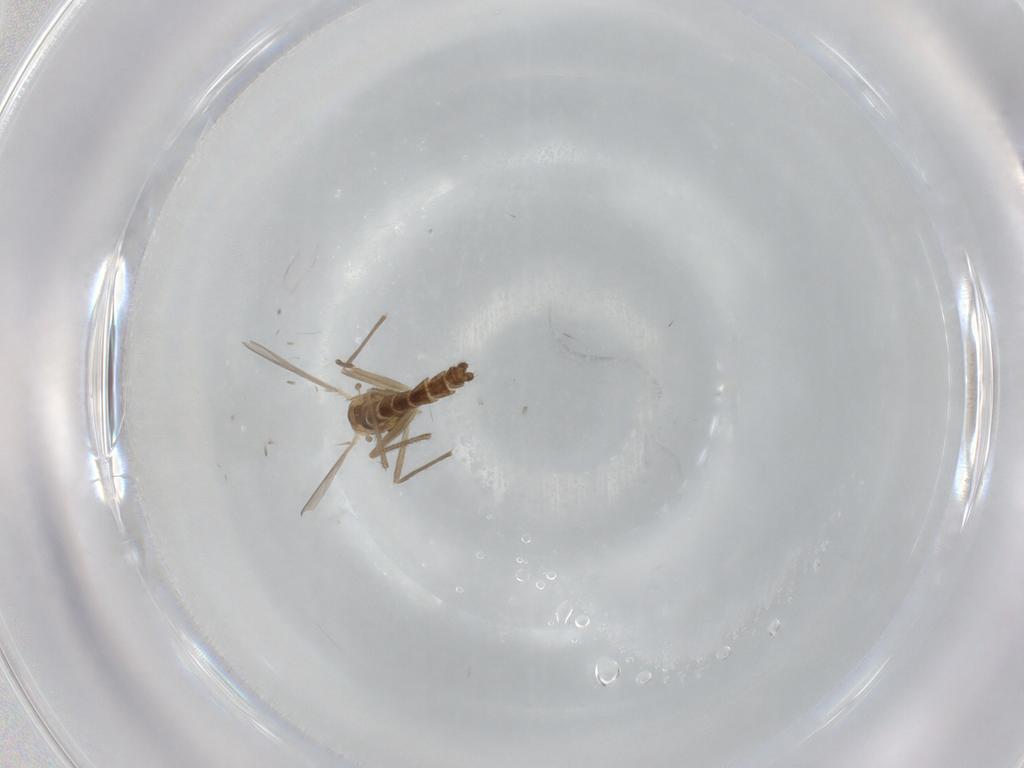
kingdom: Animalia
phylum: Arthropoda
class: Insecta
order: Diptera
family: Chironomidae
